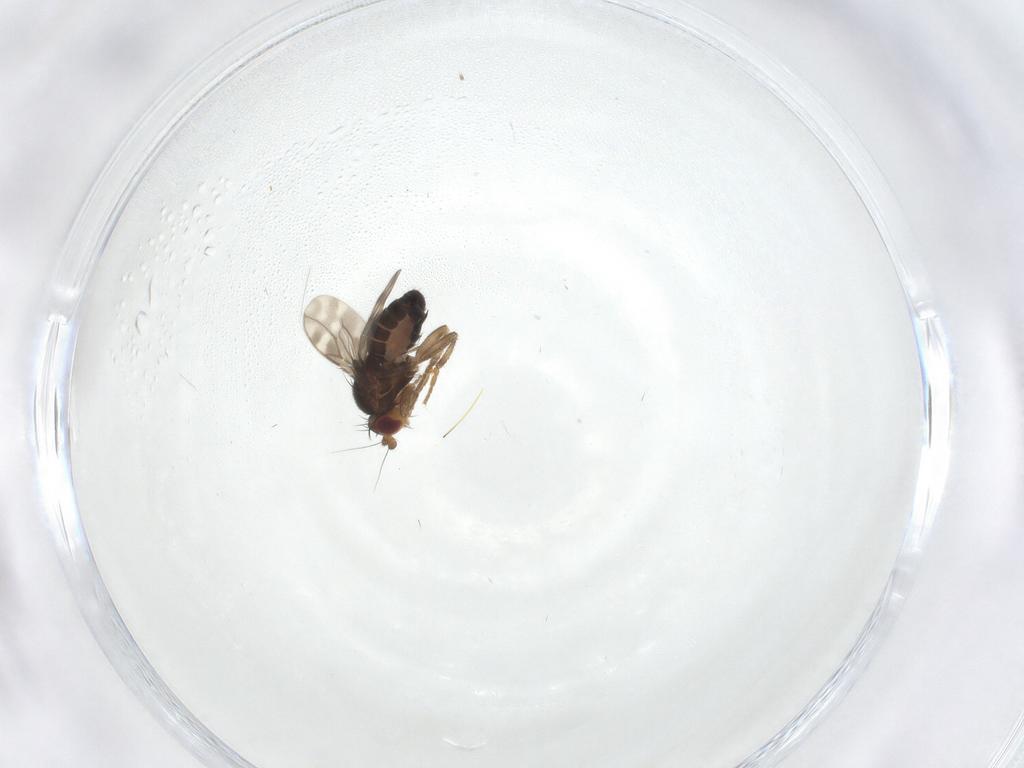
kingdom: Animalia
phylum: Arthropoda
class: Insecta
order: Diptera
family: Sphaeroceridae
